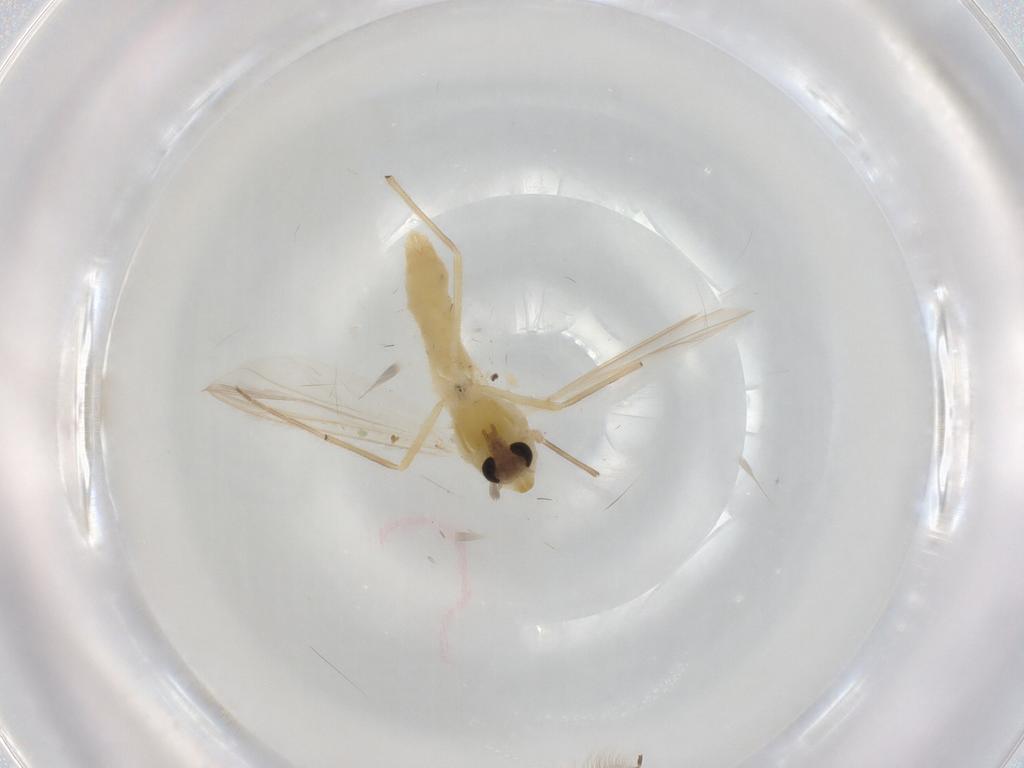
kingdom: Animalia
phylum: Arthropoda
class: Insecta
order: Diptera
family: Chironomidae
